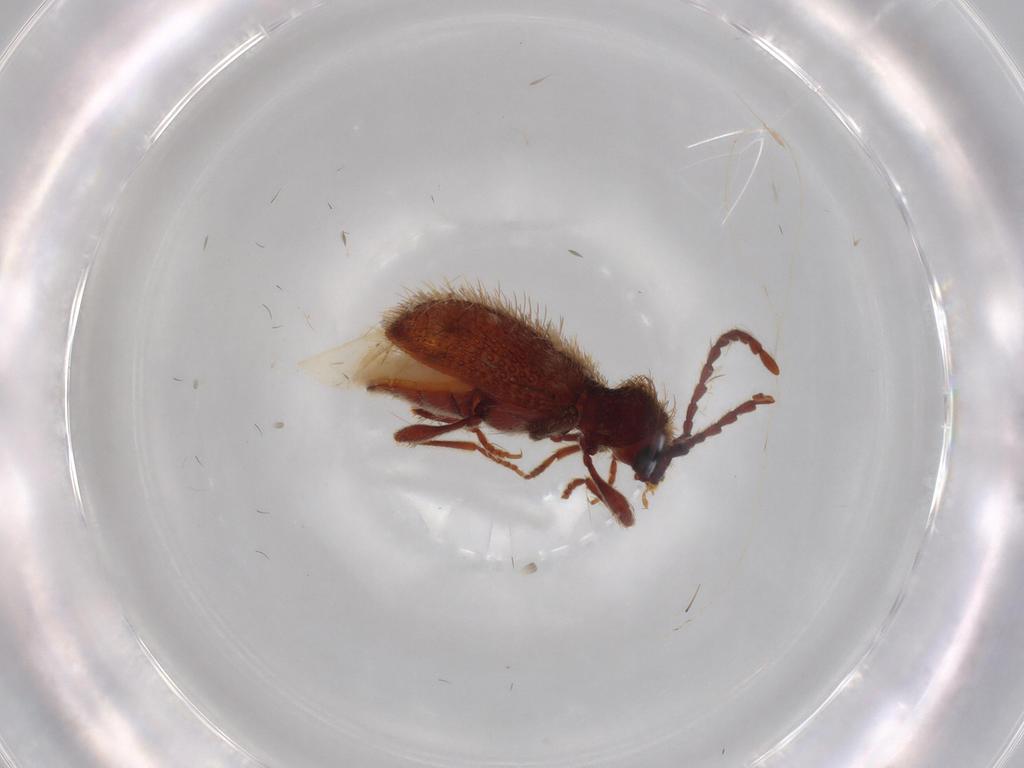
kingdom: Animalia
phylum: Arthropoda
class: Insecta
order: Coleoptera
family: Ptinidae
